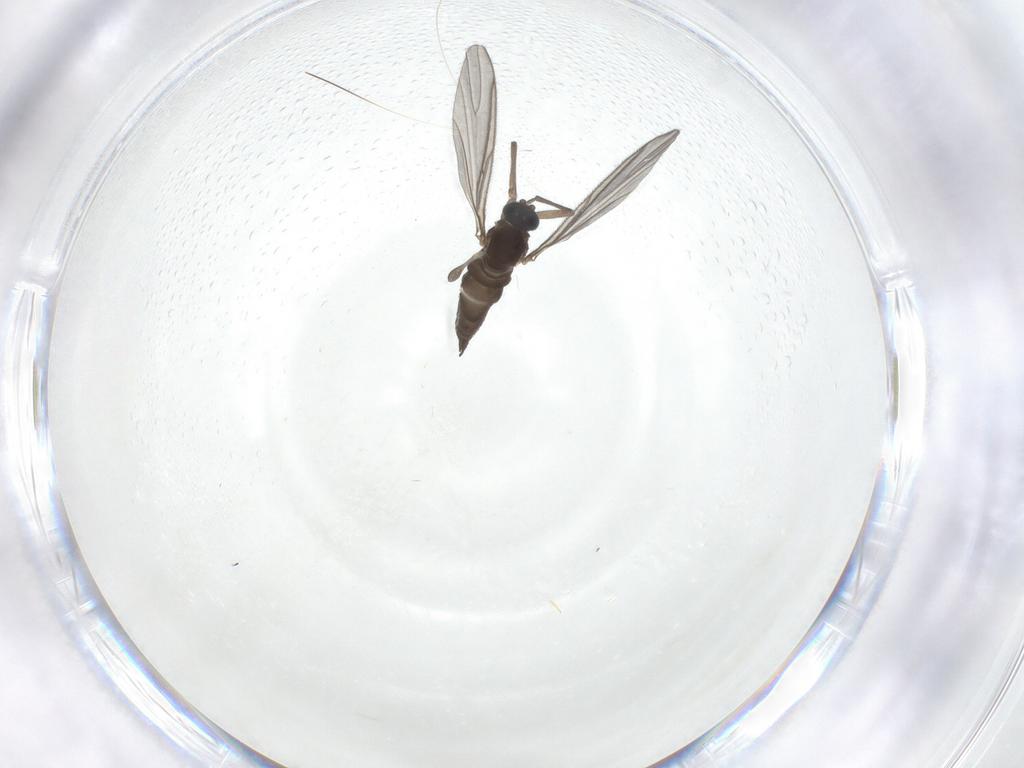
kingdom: Animalia
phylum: Arthropoda
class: Insecta
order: Diptera
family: Sciaridae
